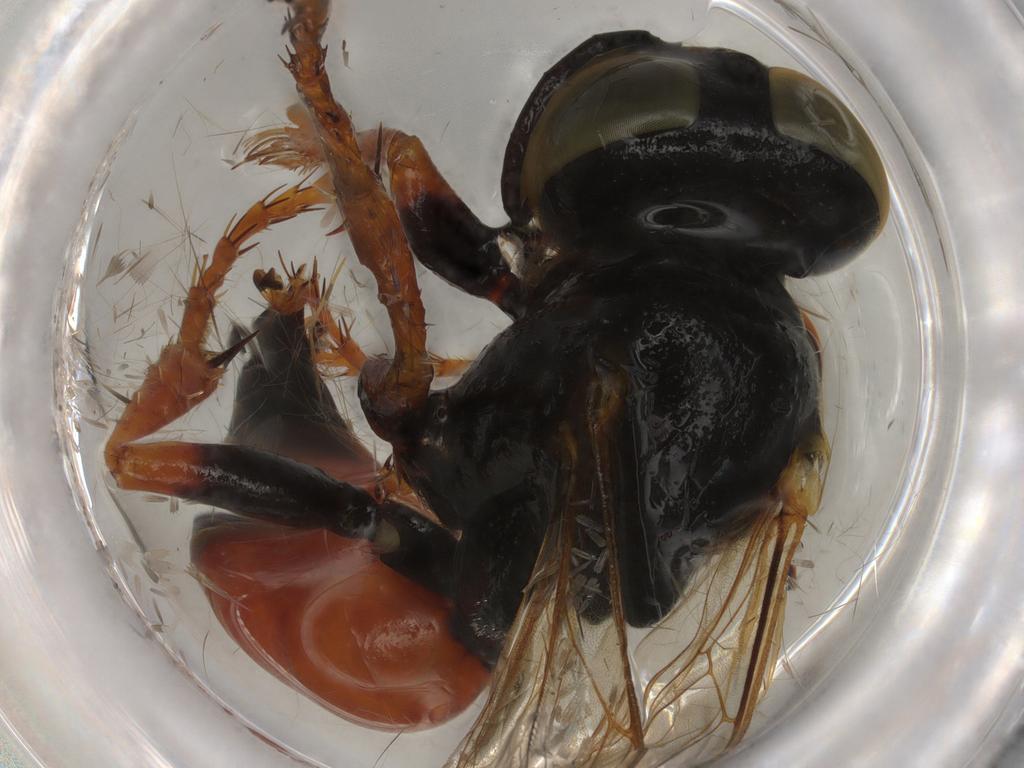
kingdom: Animalia
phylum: Arthropoda
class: Insecta
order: Hymenoptera
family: Crabronidae
